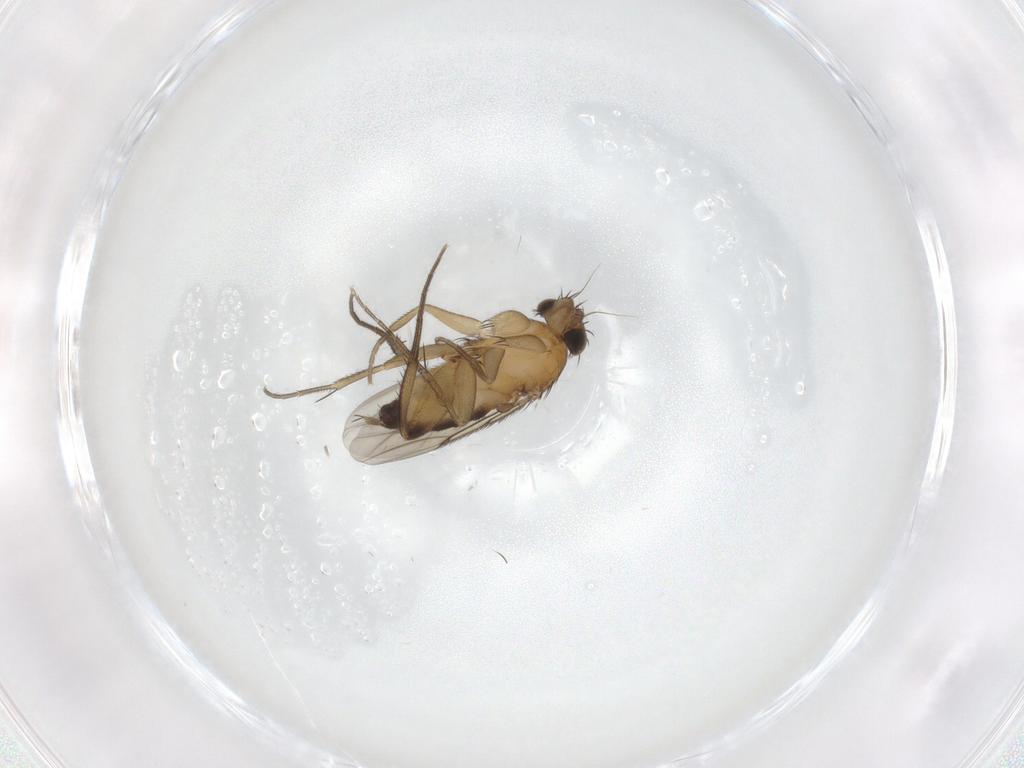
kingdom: Animalia
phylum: Arthropoda
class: Insecta
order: Diptera
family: Phoridae
